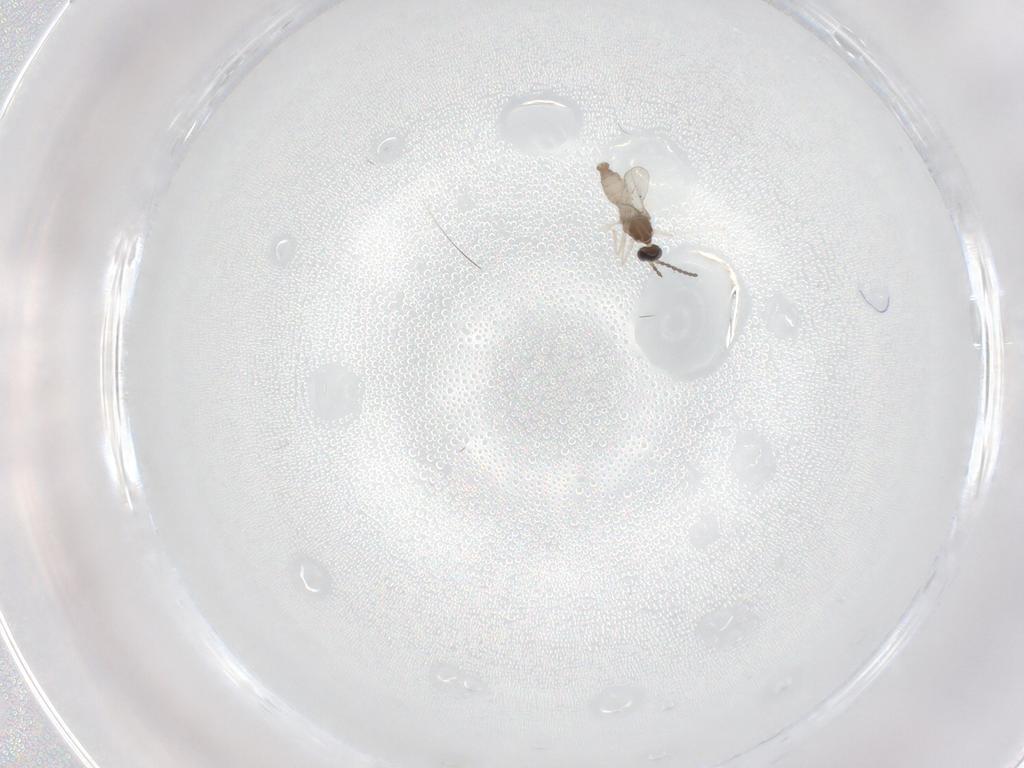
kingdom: Animalia
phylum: Arthropoda
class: Insecta
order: Diptera
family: Cecidomyiidae
